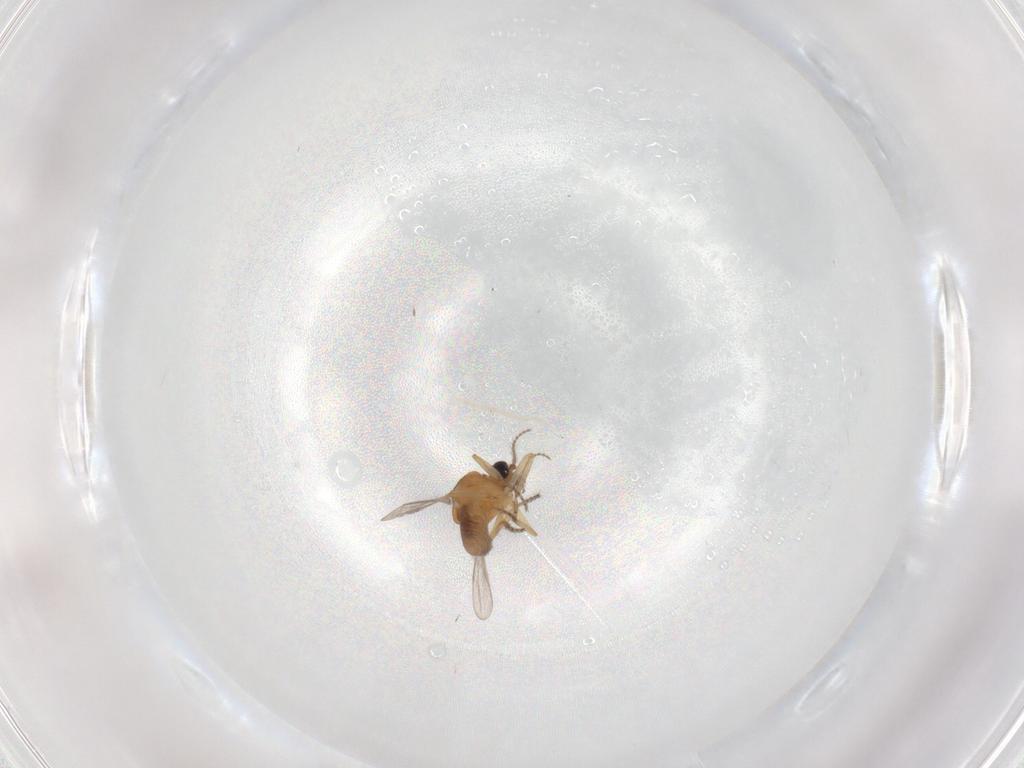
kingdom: Animalia
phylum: Arthropoda
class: Insecta
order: Diptera
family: Ceratopogonidae
